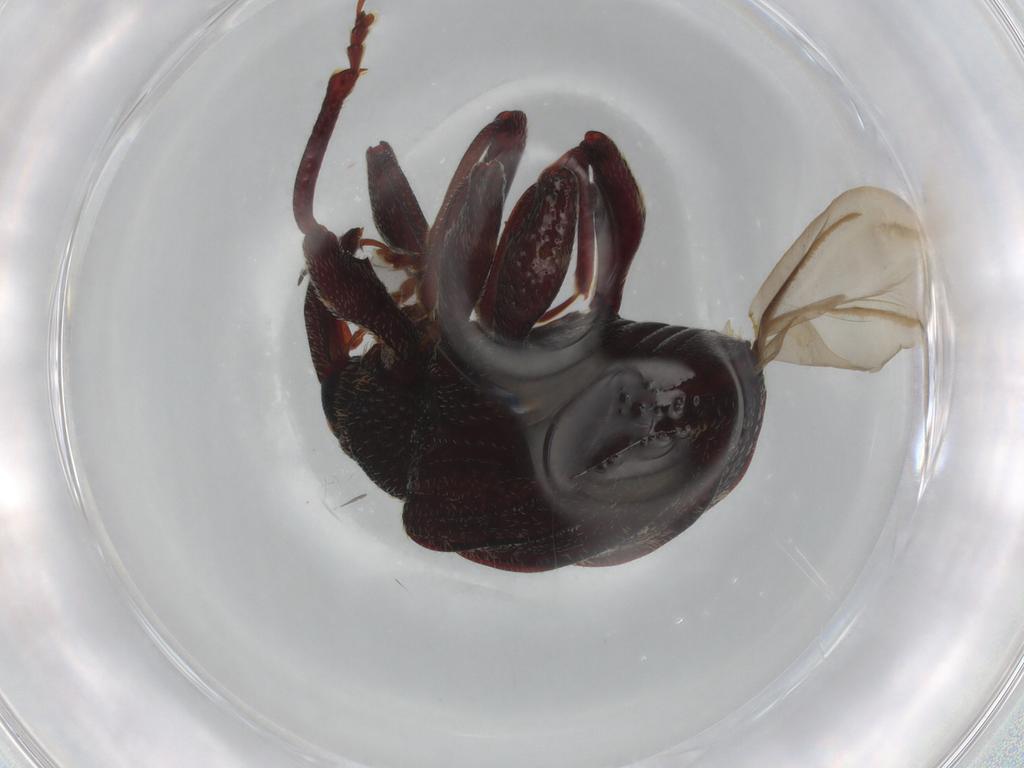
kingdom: Animalia
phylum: Arthropoda
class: Insecta
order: Coleoptera
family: Curculionidae
